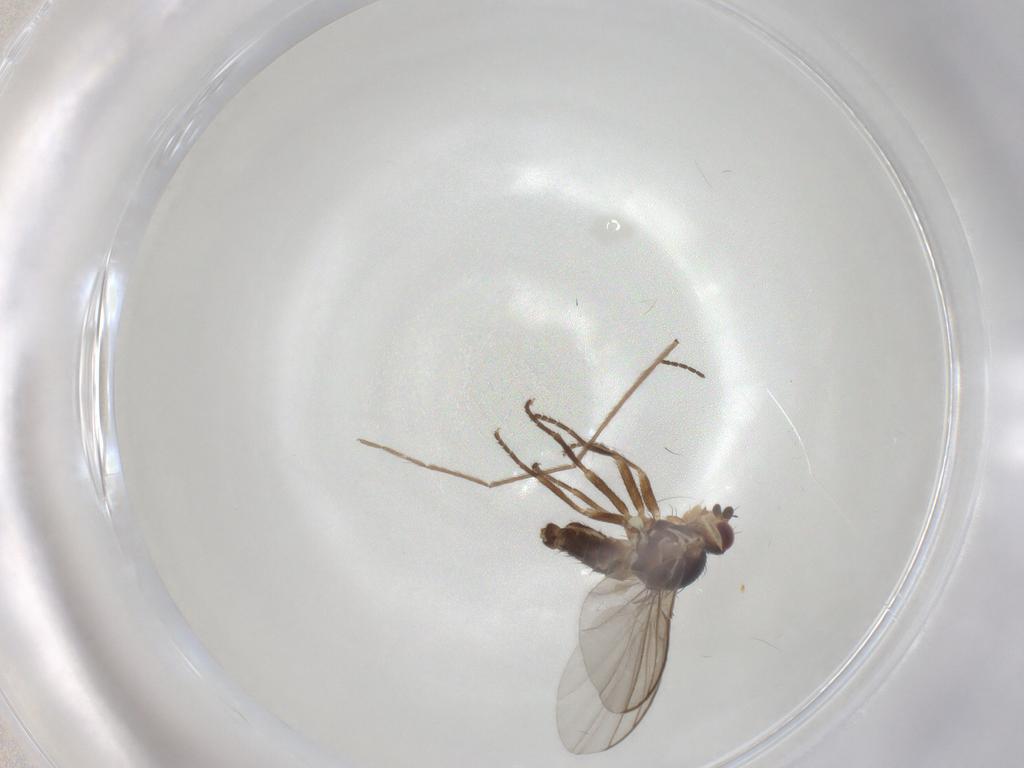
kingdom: Animalia
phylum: Arthropoda
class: Insecta
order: Diptera
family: Agromyzidae
